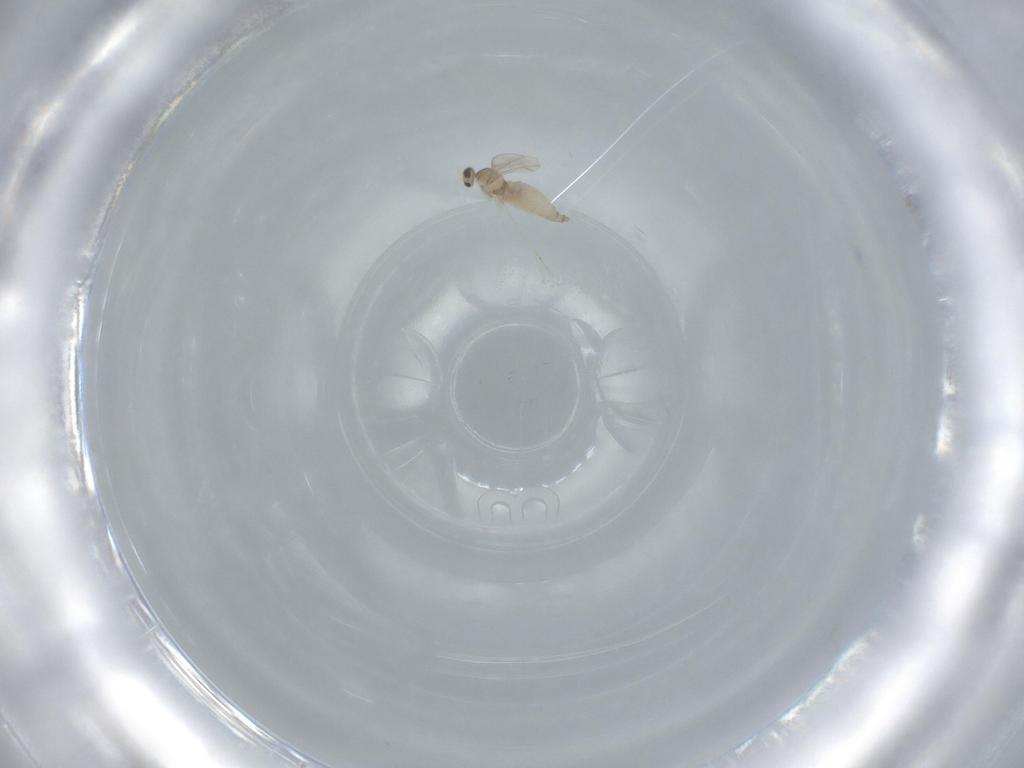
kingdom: Animalia
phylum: Arthropoda
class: Insecta
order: Diptera
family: Cecidomyiidae
